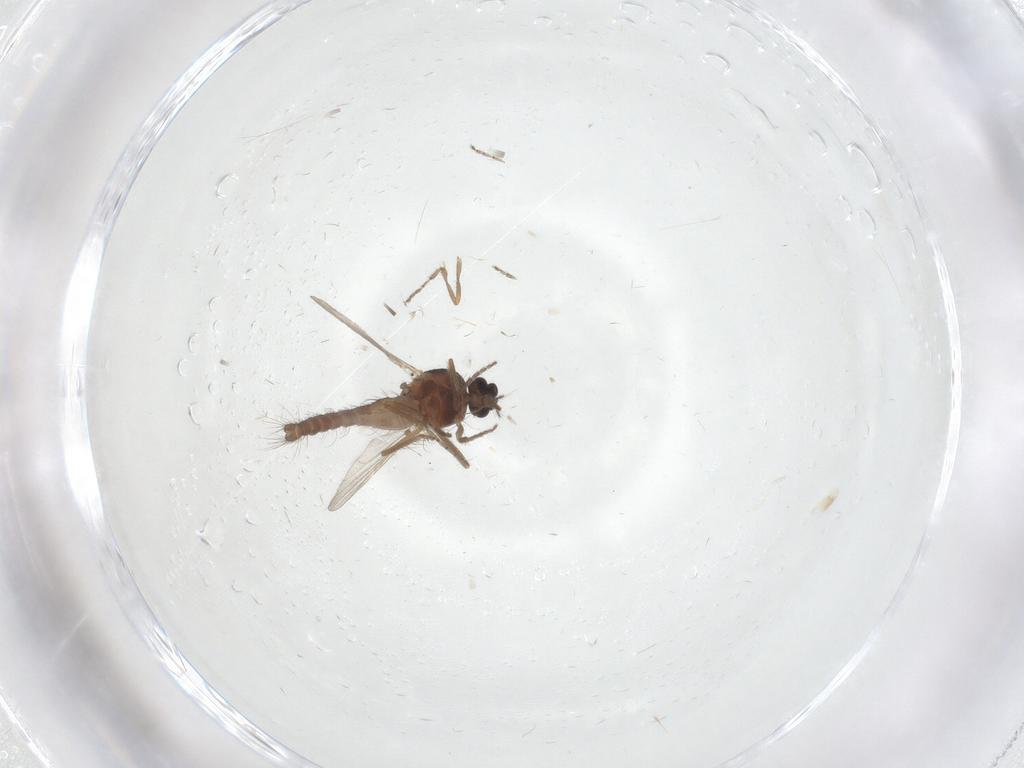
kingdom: Animalia
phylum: Arthropoda
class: Insecta
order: Diptera
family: Ceratopogonidae
